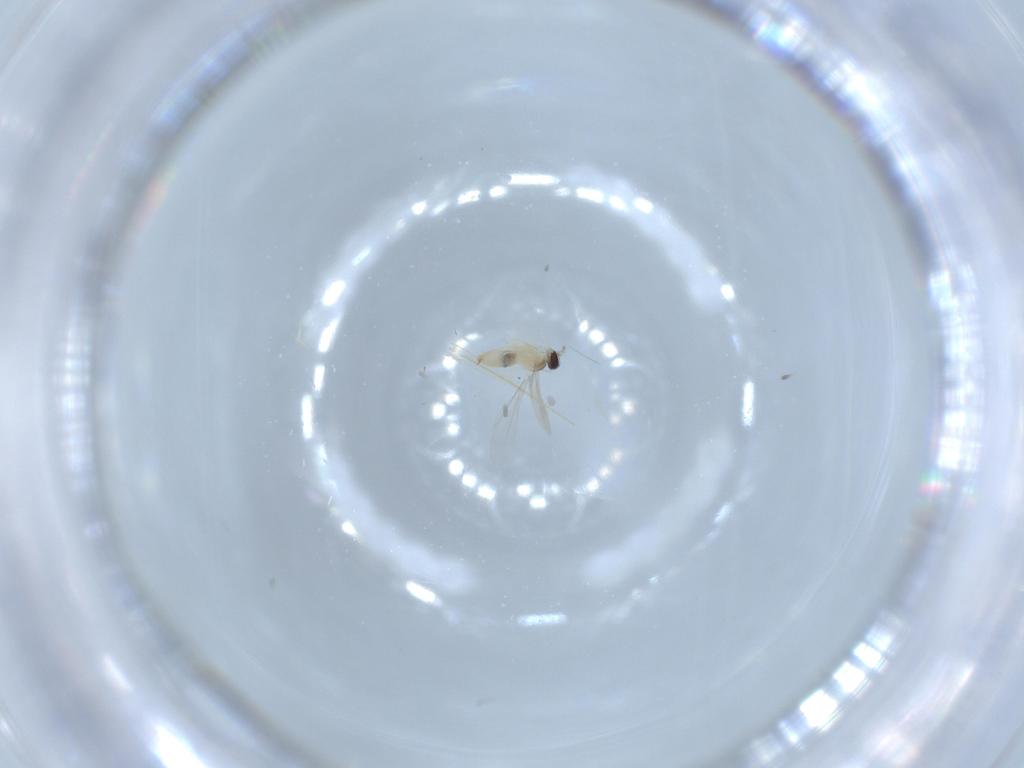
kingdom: Animalia
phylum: Arthropoda
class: Insecta
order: Diptera
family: Cecidomyiidae
